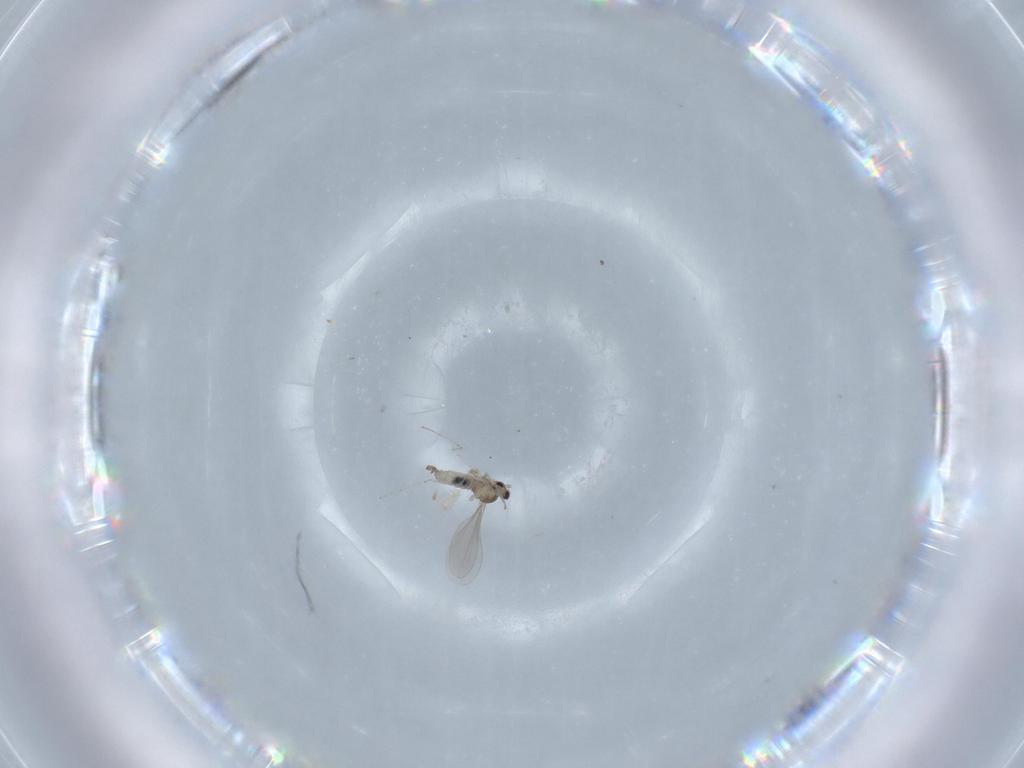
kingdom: Animalia
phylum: Arthropoda
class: Insecta
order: Diptera
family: Cecidomyiidae
